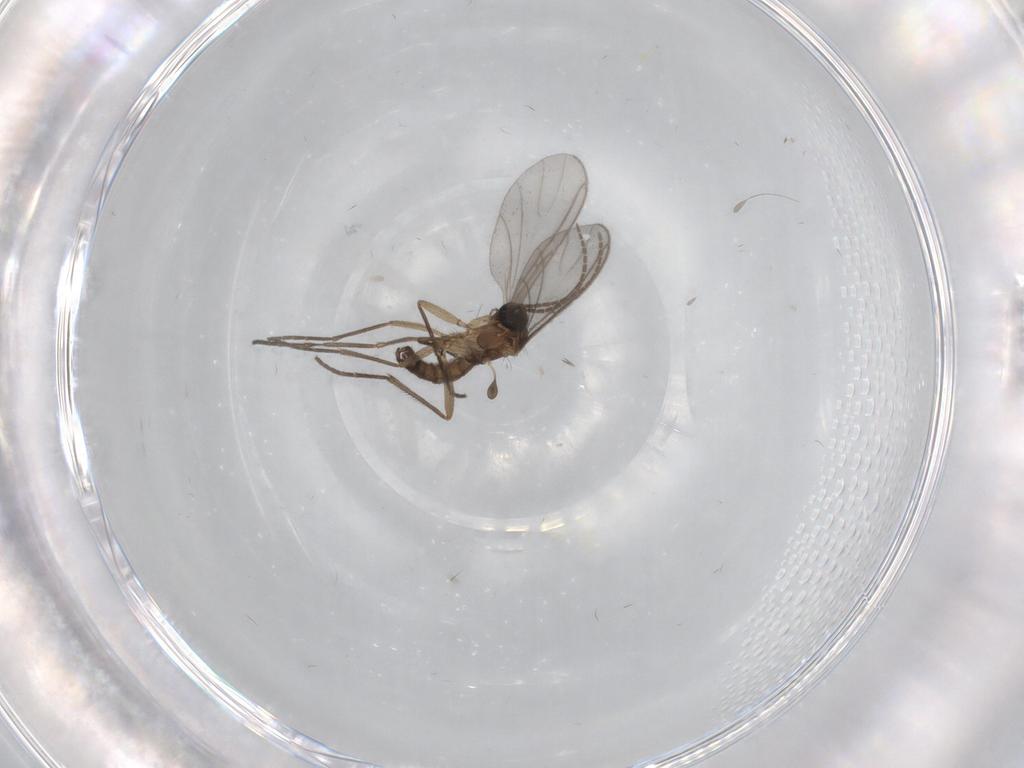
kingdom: Animalia
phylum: Arthropoda
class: Insecta
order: Diptera
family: Sciaridae
